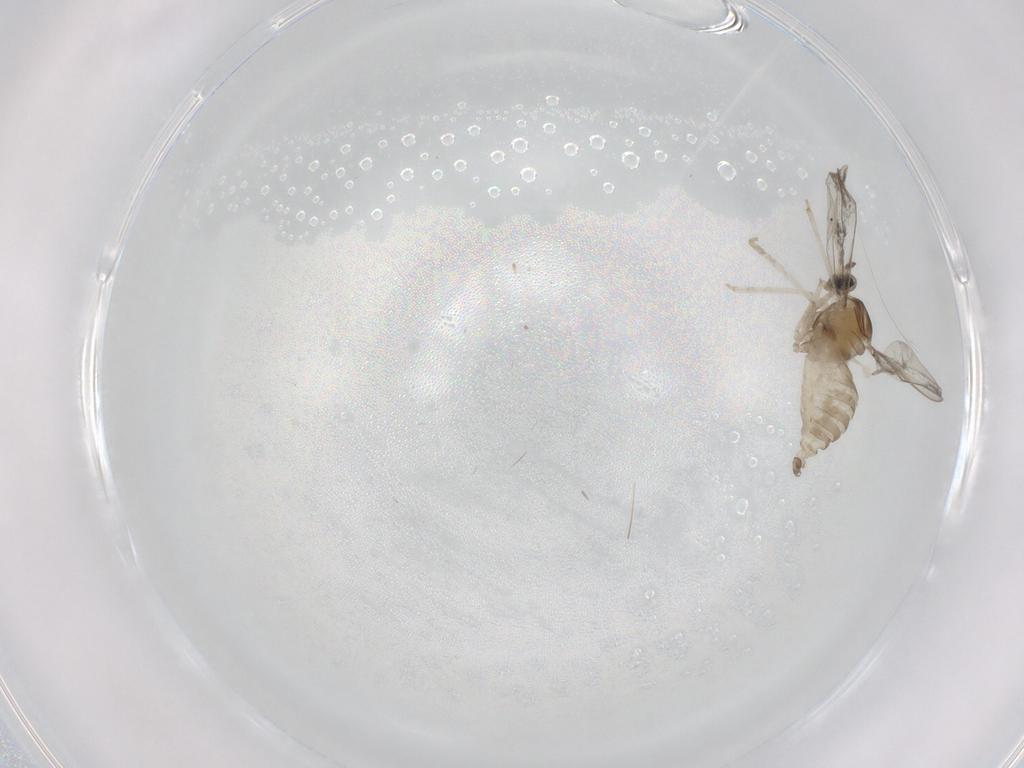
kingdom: Animalia
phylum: Arthropoda
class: Insecta
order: Diptera
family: Cecidomyiidae
